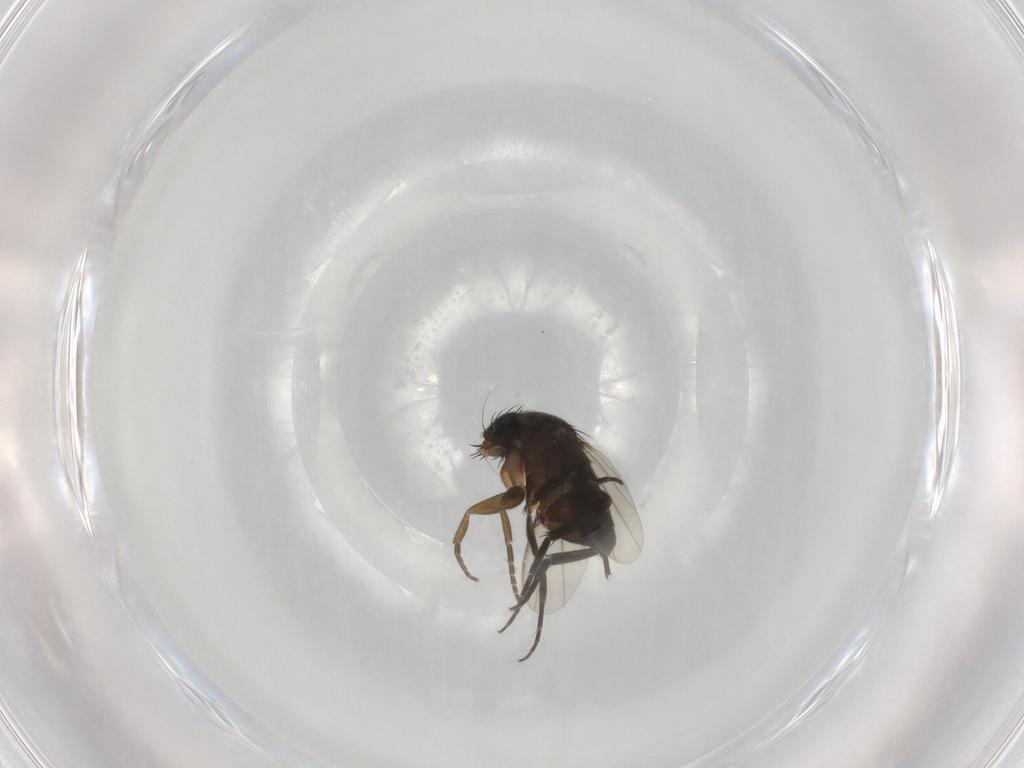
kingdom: Animalia
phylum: Arthropoda
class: Insecta
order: Diptera
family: Phoridae
